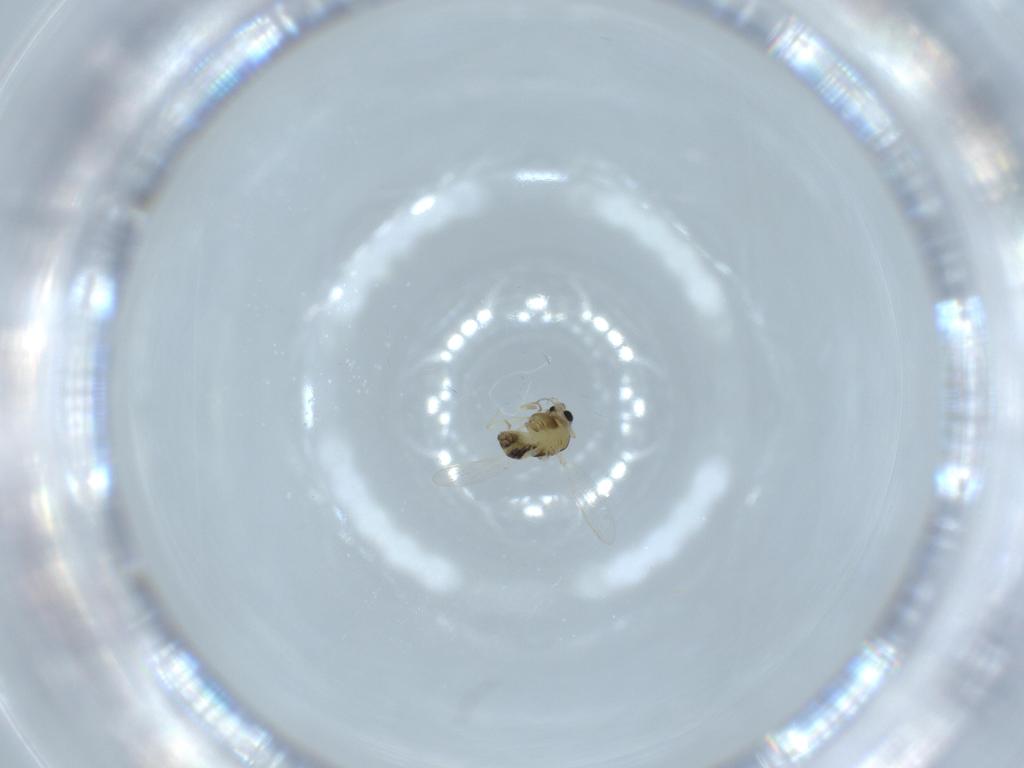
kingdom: Animalia
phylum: Arthropoda
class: Insecta
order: Diptera
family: Chironomidae
